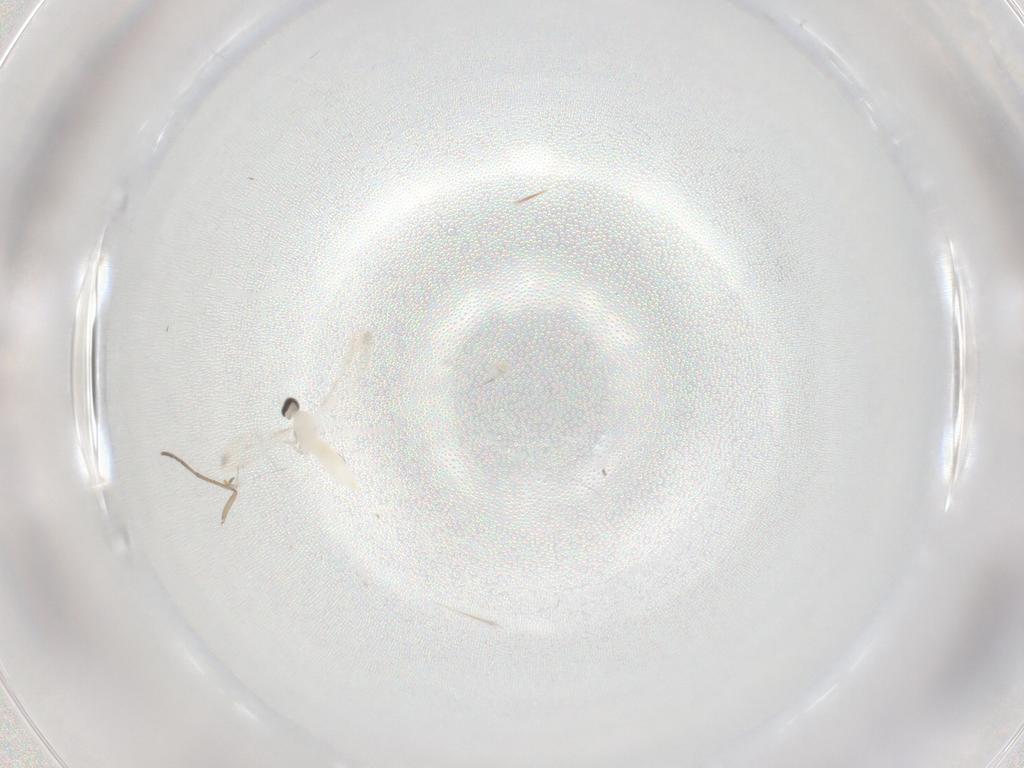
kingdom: Animalia
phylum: Arthropoda
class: Insecta
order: Diptera
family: Cecidomyiidae
